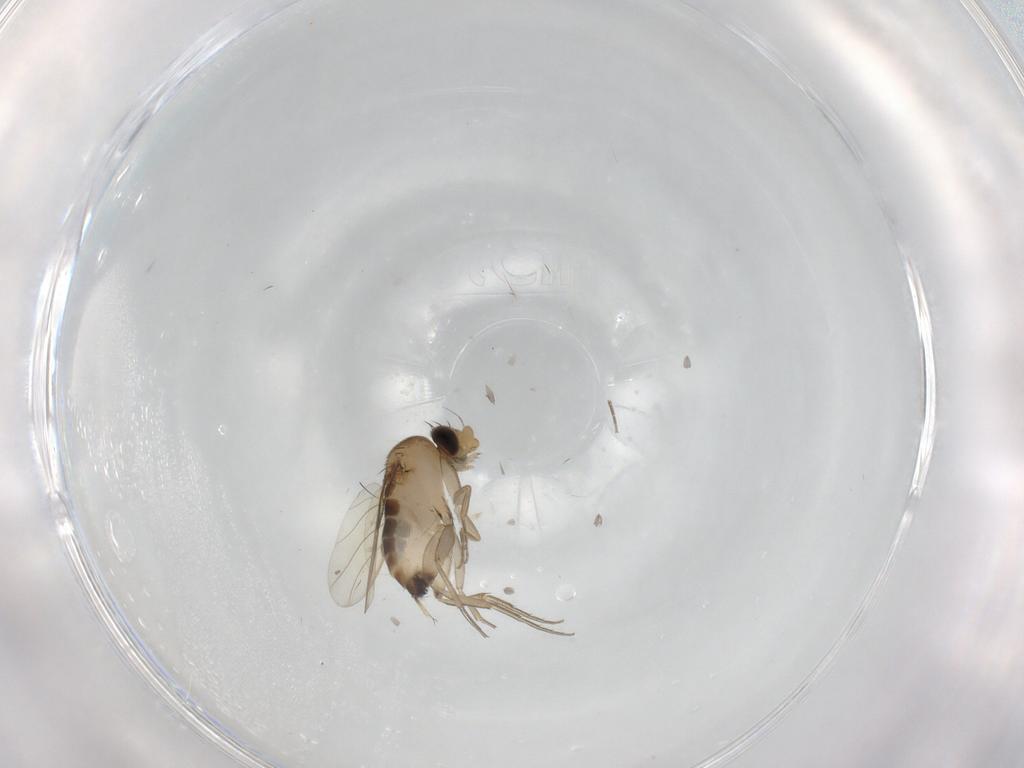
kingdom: Animalia
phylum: Arthropoda
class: Insecta
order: Diptera
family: Phoridae
